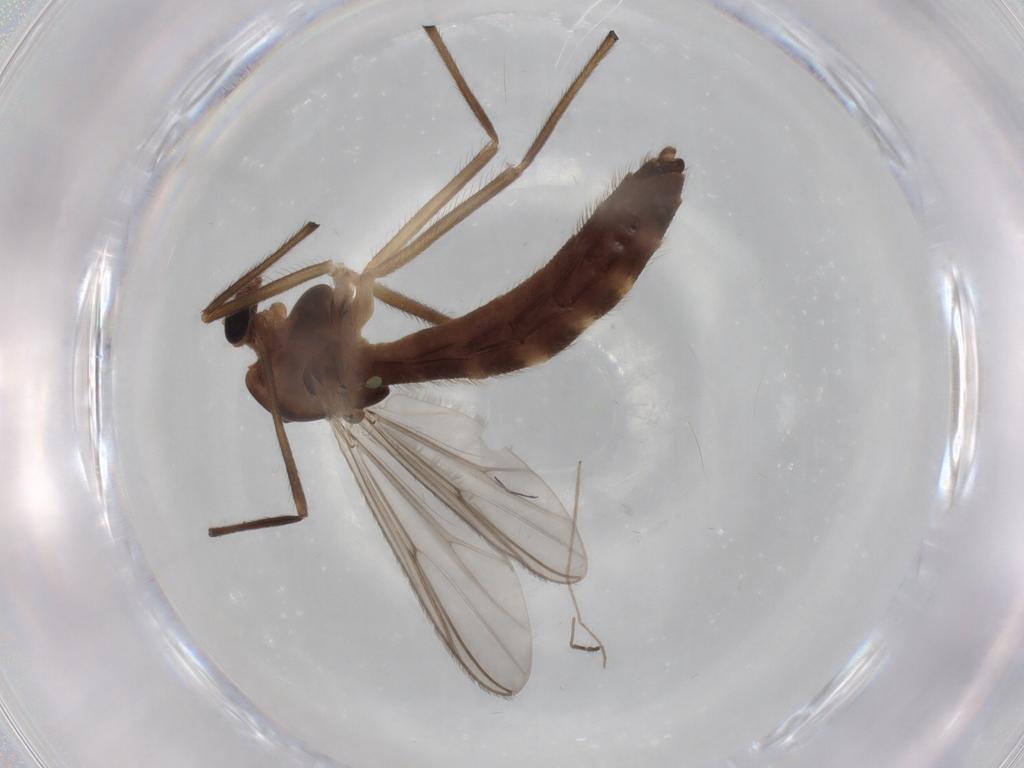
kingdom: Animalia
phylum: Arthropoda
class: Insecta
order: Diptera
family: Chironomidae
